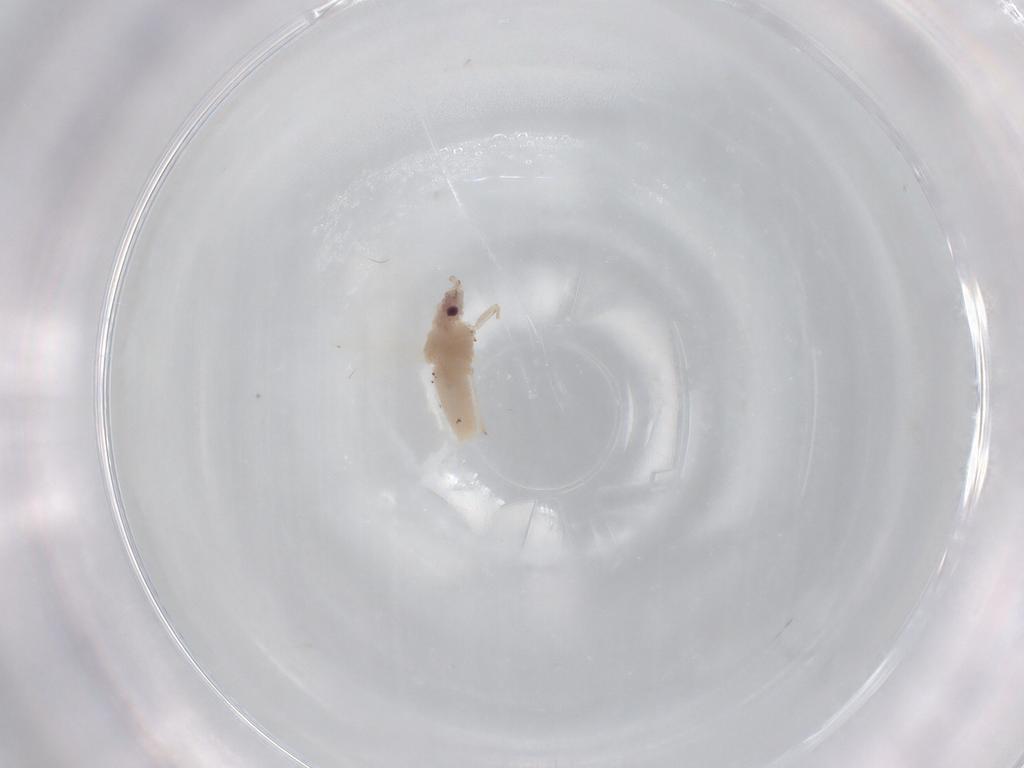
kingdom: Animalia
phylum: Arthropoda
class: Insecta
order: Hemiptera
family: Aphididae
